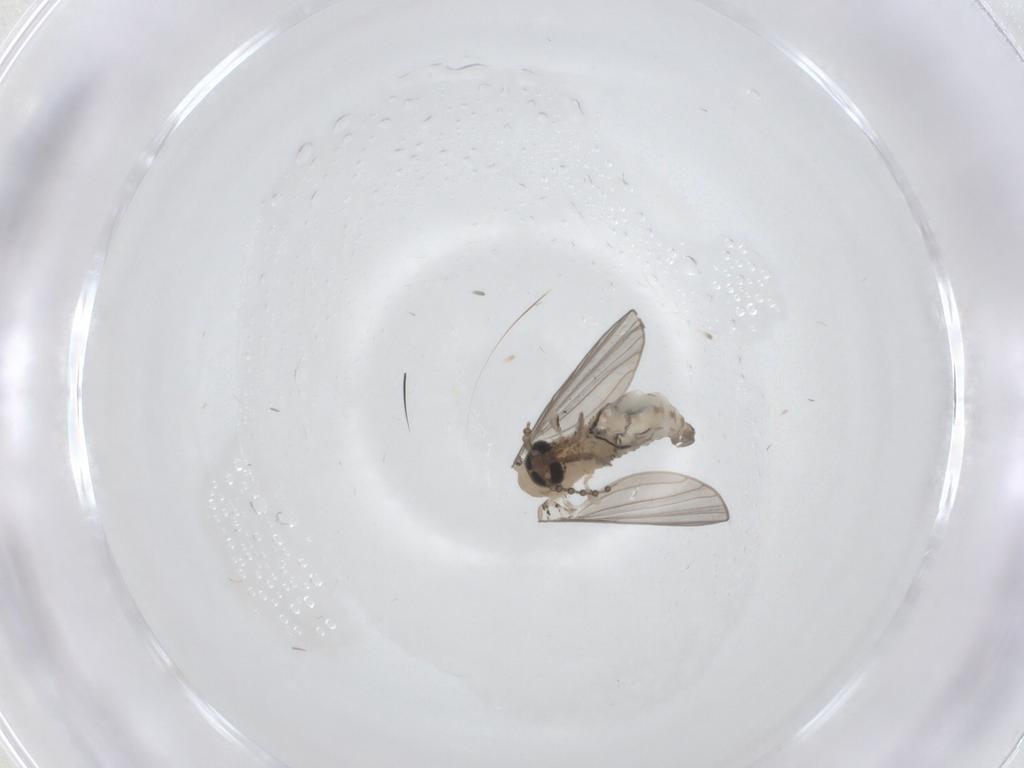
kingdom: Animalia
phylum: Arthropoda
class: Insecta
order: Diptera
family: Psychodidae
